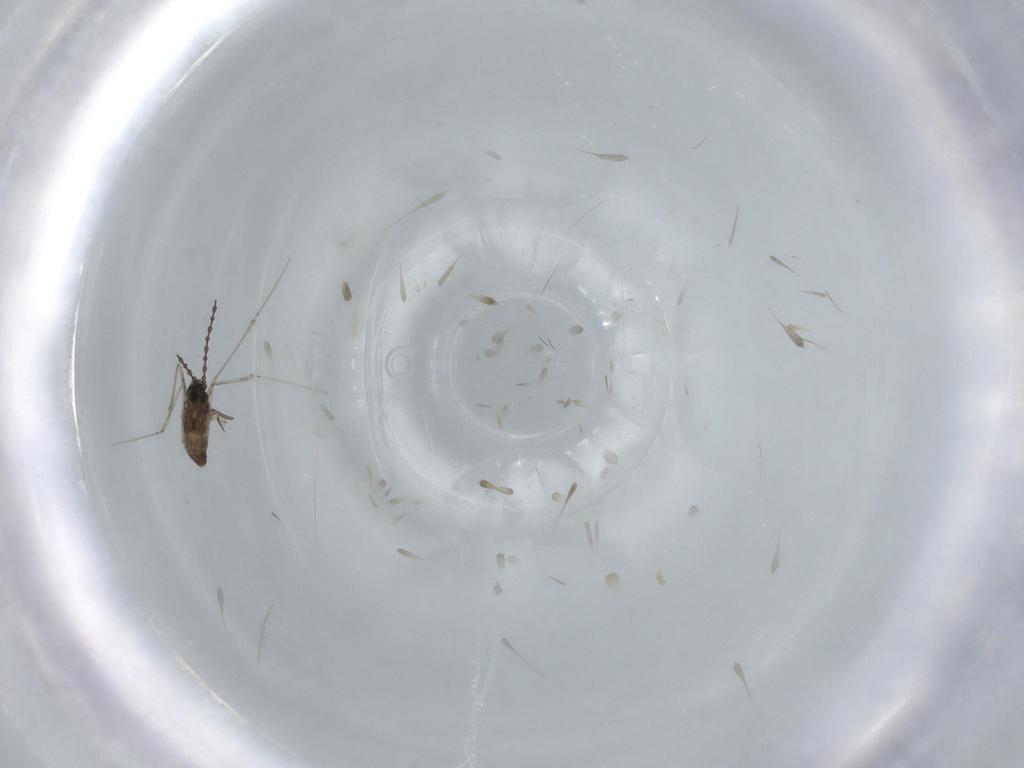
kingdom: Animalia
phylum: Arthropoda
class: Insecta
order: Diptera
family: Cecidomyiidae
